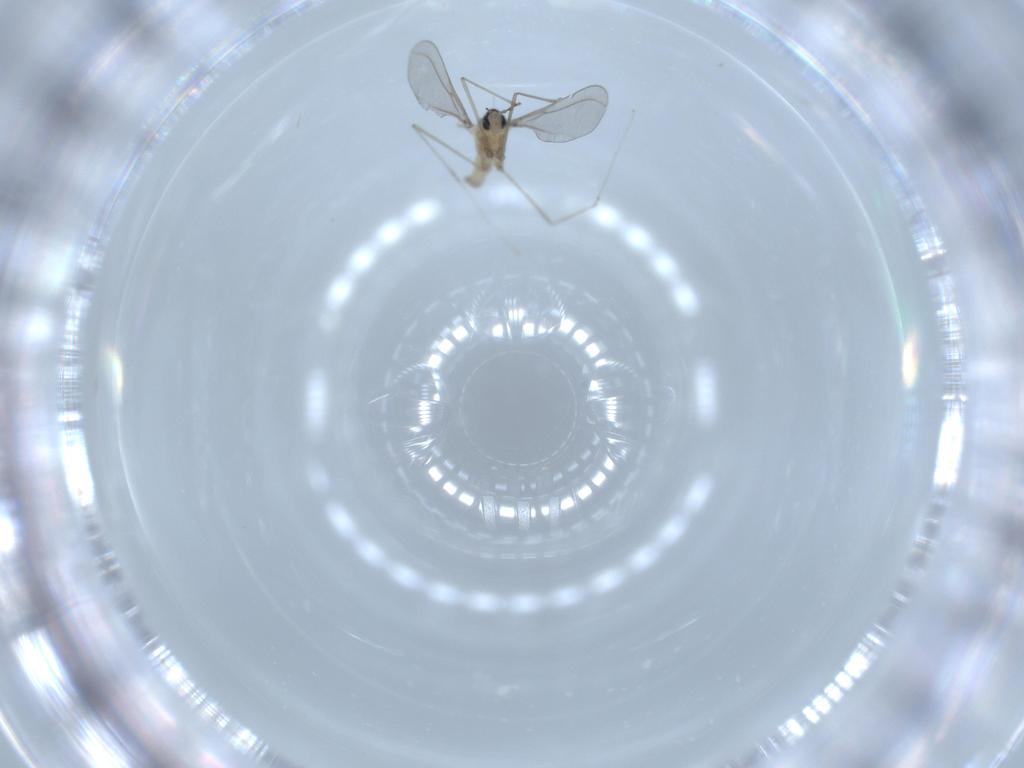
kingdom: Animalia
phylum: Arthropoda
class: Insecta
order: Diptera
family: Cecidomyiidae
